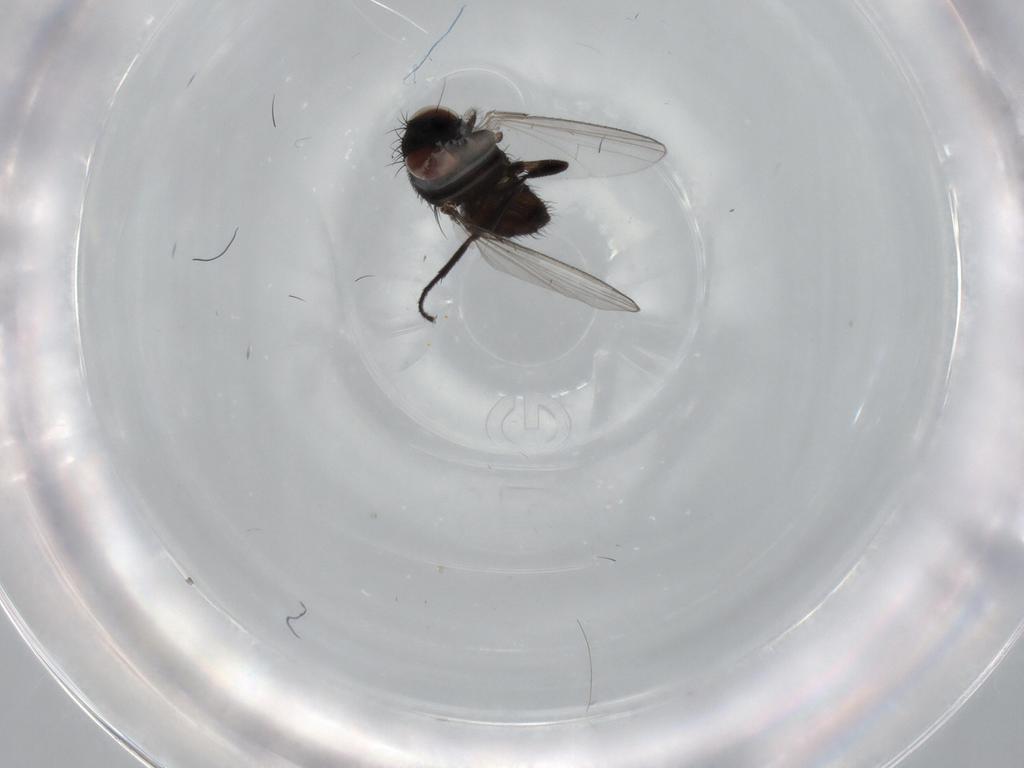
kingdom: Animalia
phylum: Arthropoda
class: Insecta
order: Diptera
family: Milichiidae
